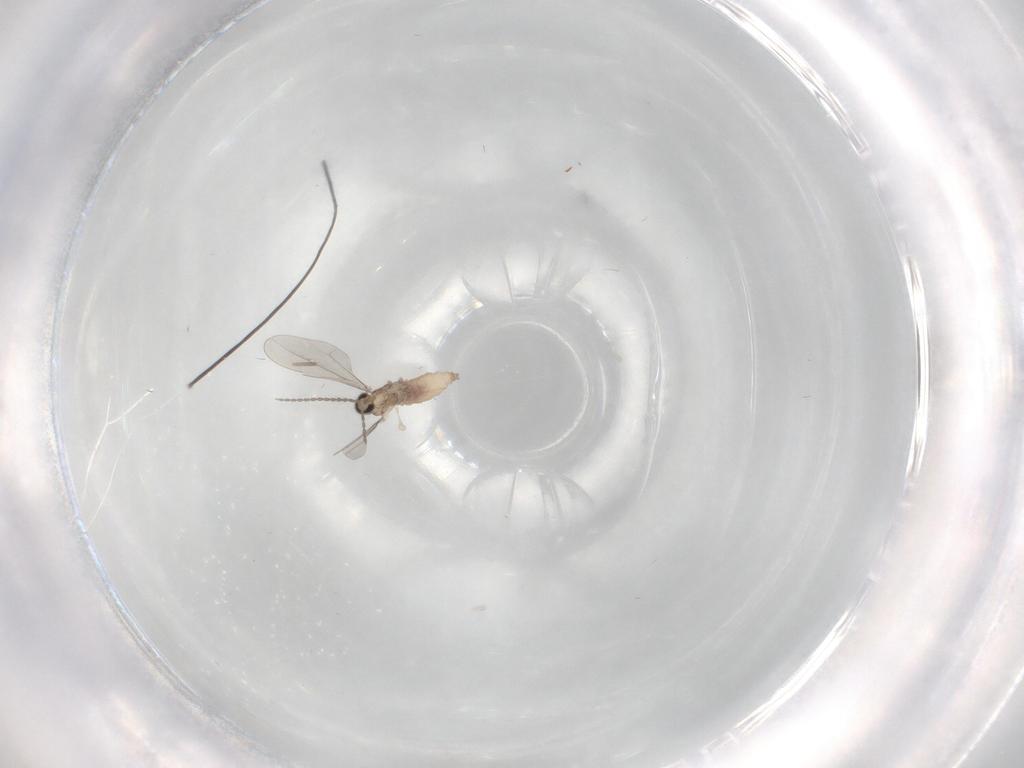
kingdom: Animalia
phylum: Arthropoda
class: Insecta
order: Diptera
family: Cecidomyiidae
